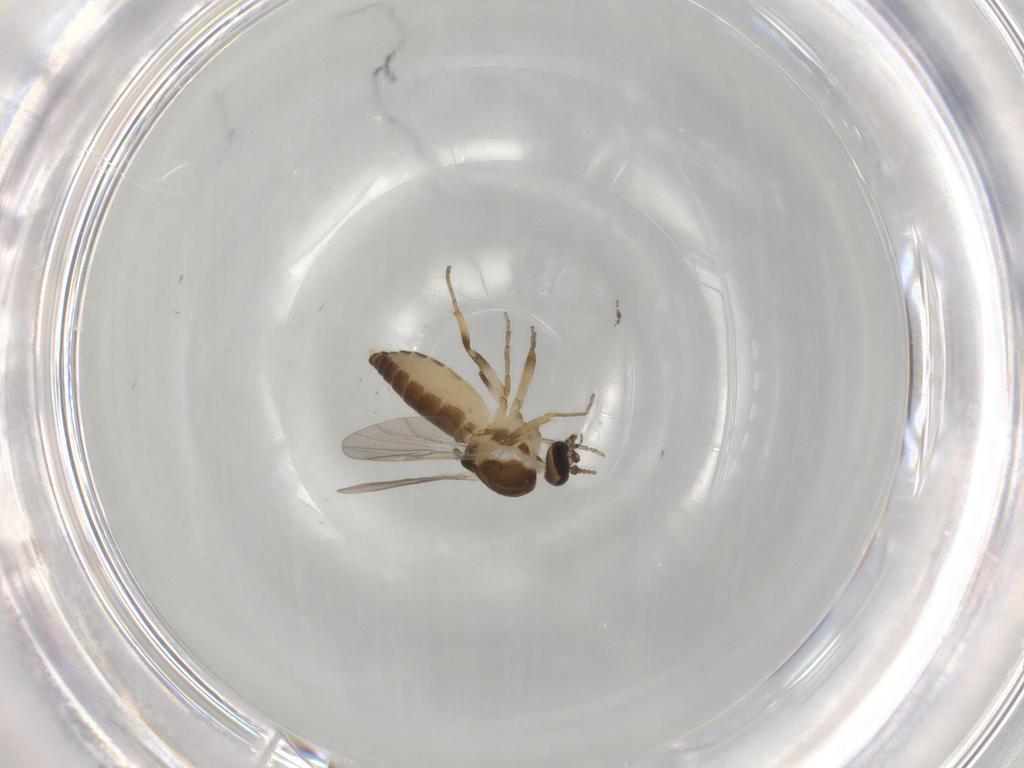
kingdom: Animalia
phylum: Arthropoda
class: Insecta
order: Diptera
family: Ceratopogonidae
